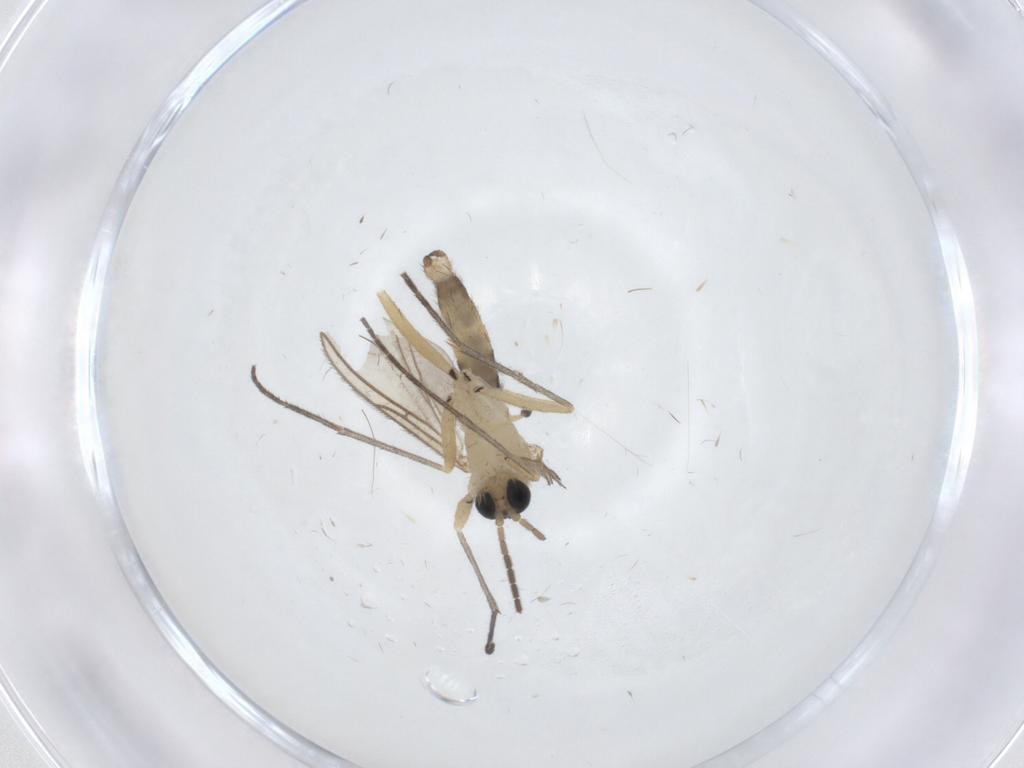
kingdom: Animalia
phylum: Arthropoda
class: Insecta
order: Diptera
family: Sciaridae
